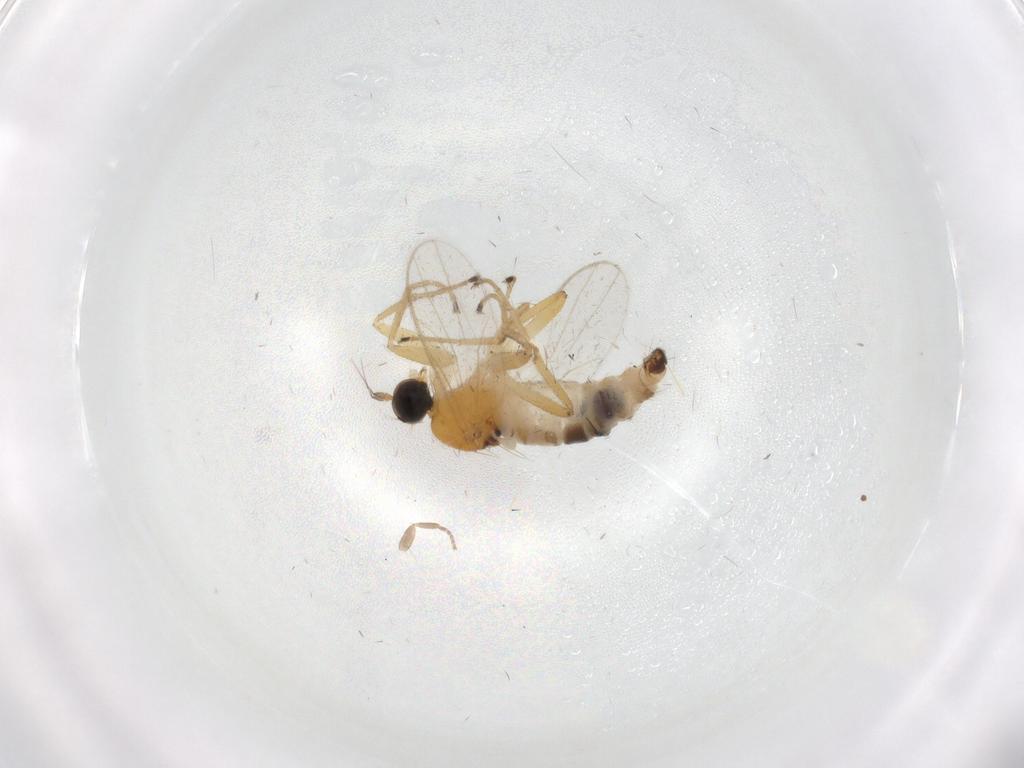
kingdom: Animalia
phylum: Arthropoda
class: Insecta
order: Diptera
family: Hybotidae
